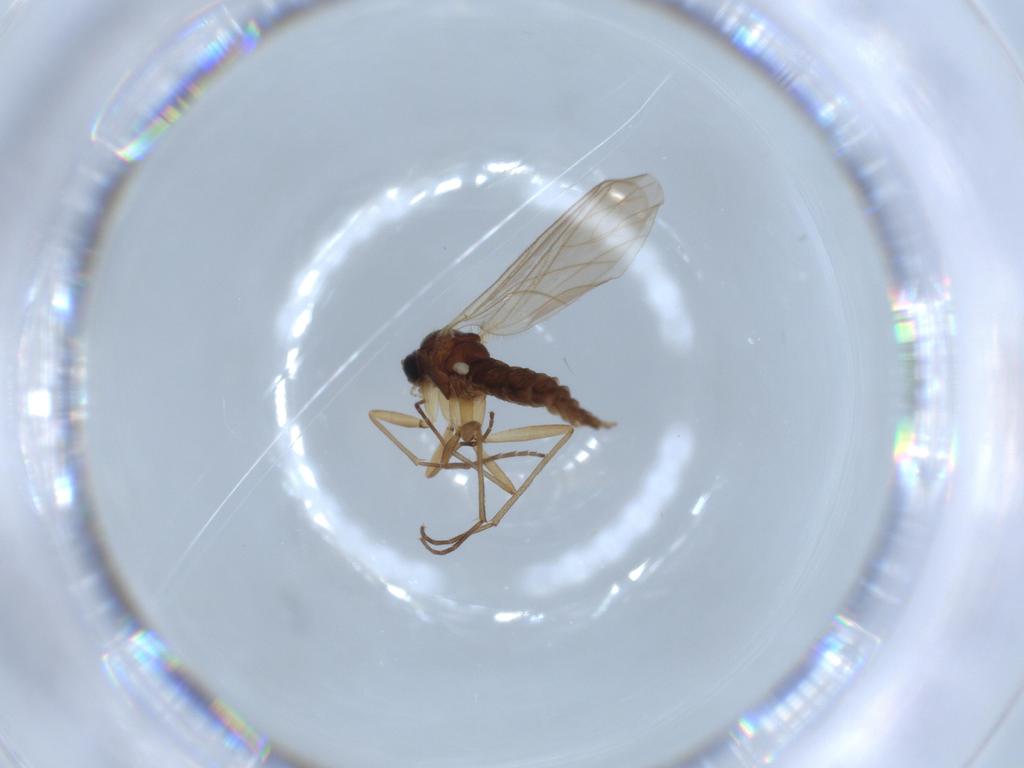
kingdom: Animalia
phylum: Arthropoda
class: Insecta
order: Diptera
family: Sciaridae
